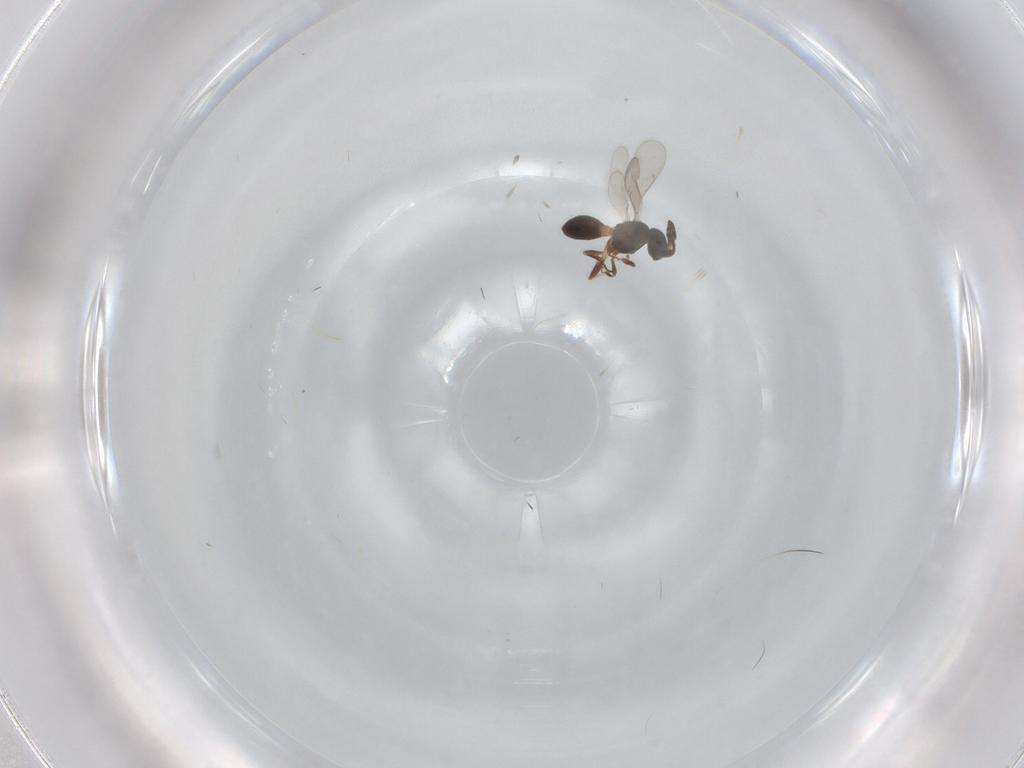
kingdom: Animalia
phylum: Arthropoda
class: Insecta
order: Hymenoptera
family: Scelionidae
